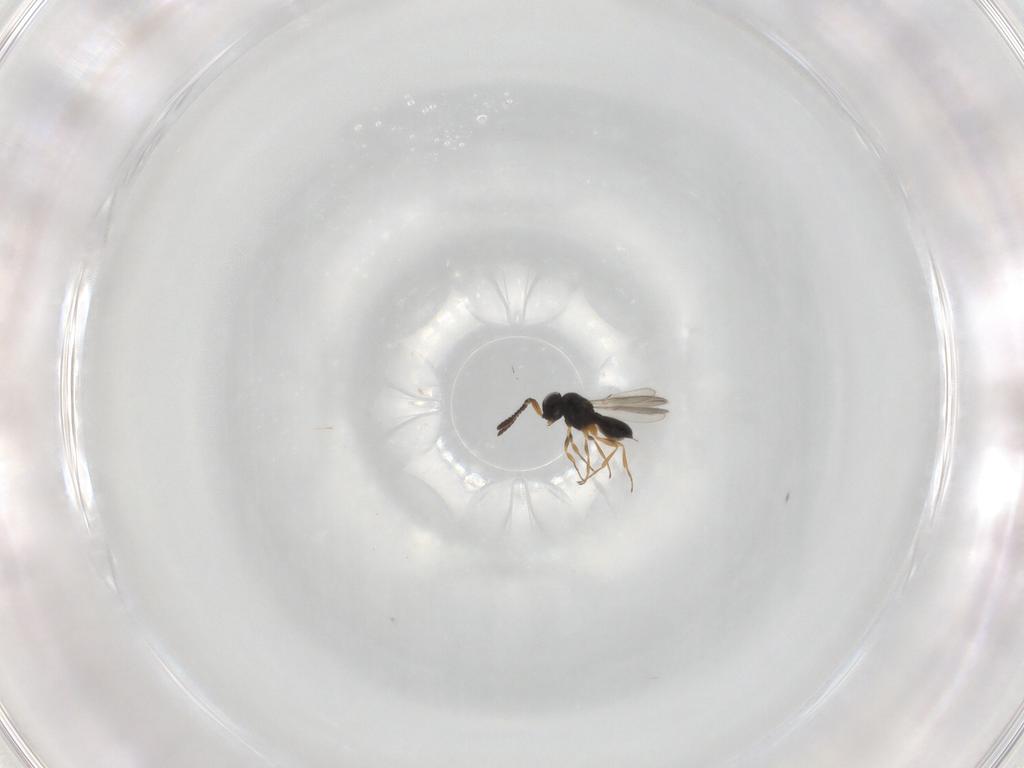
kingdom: Animalia
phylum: Arthropoda
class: Insecta
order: Hymenoptera
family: Scelionidae
